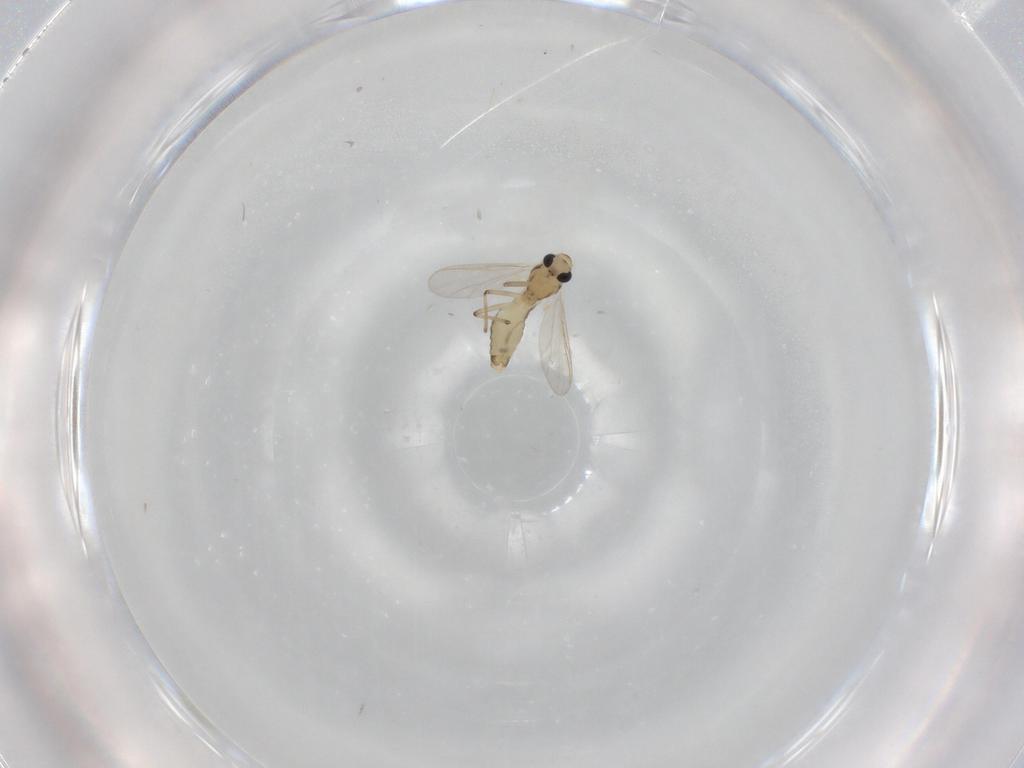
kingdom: Animalia
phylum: Arthropoda
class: Insecta
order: Diptera
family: Chironomidae
